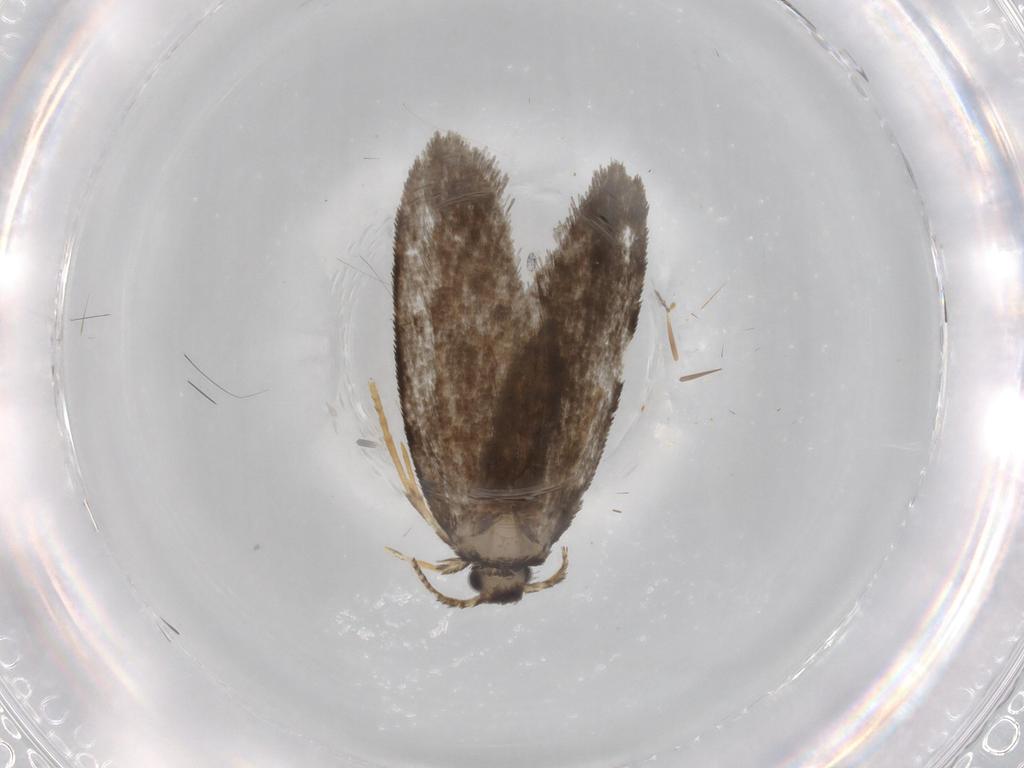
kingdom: Animalia
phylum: Arthropoda
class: Insecta
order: Lepidoptera
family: Psychidae
